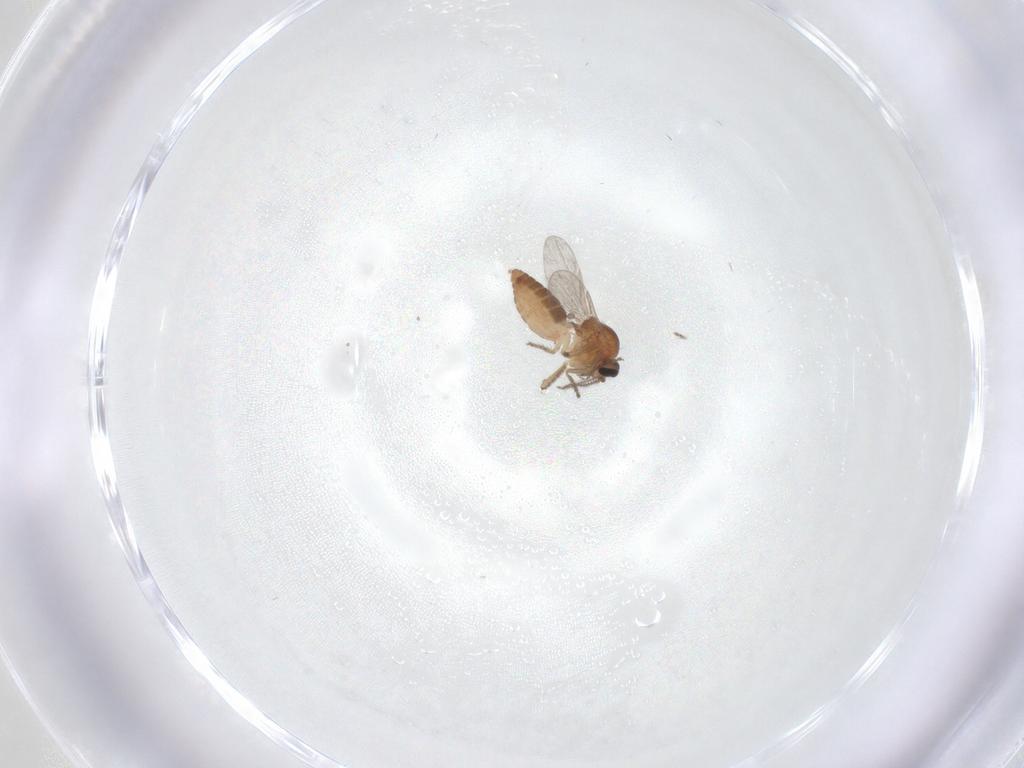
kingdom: Animalia
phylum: Arthropoda
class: Insecta
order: Diptera
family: Ceratopogonidae
